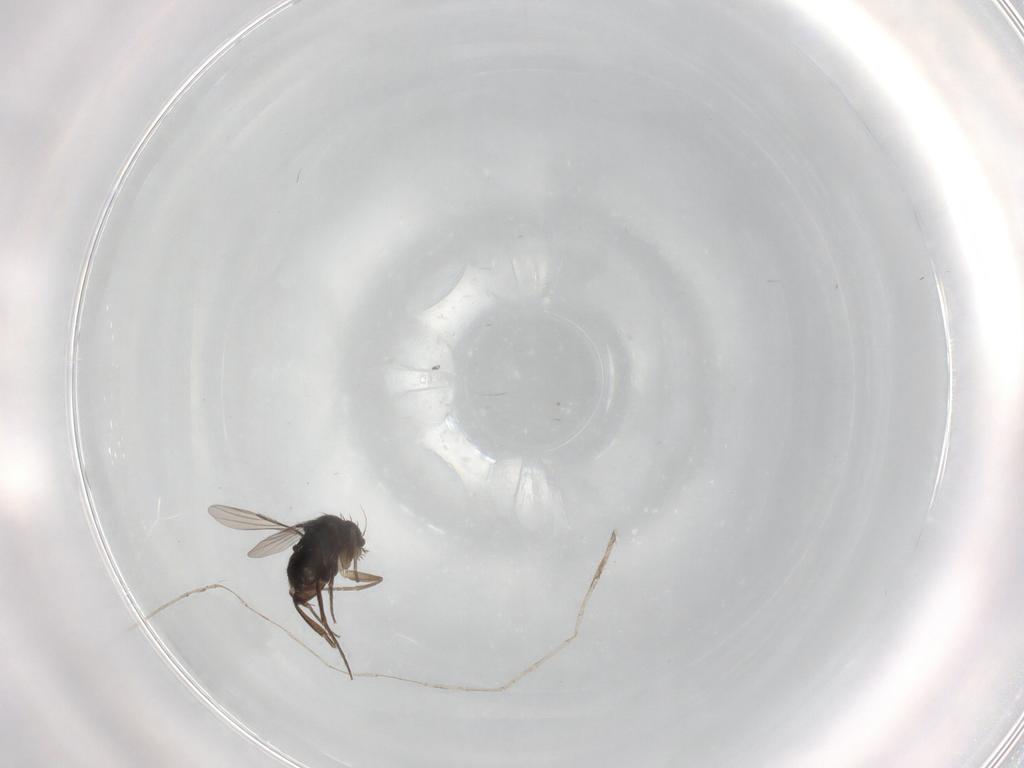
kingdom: Animalia
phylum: Arthropoda
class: Insecta
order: Diptera
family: Phoridae
